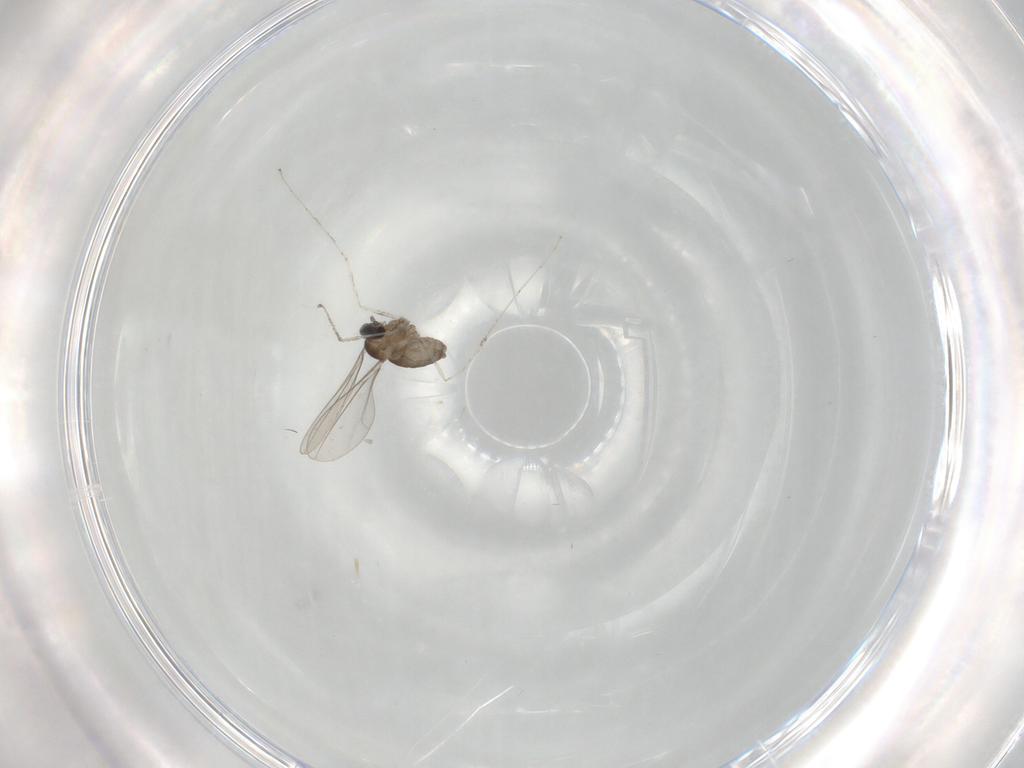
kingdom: Animalia
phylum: Arthropoda
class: Insecta
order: Diptera
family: Cecidomyiidae
